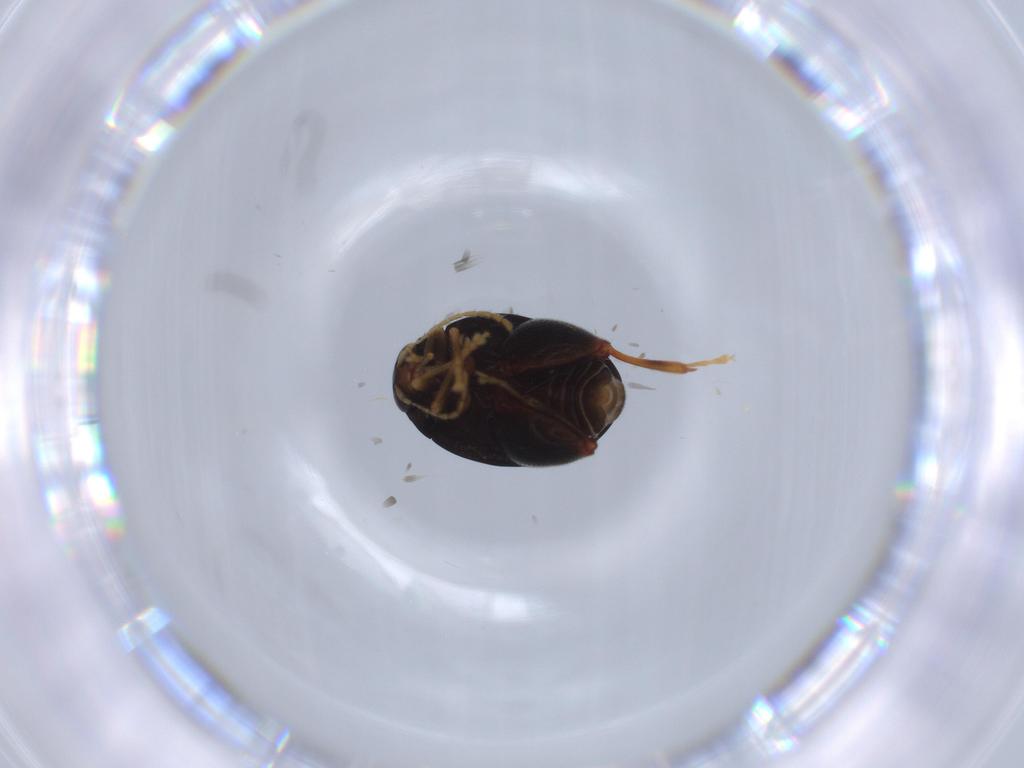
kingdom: Animalia
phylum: Arthropoda
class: Insecta
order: Coleoptera
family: Chrysomelidae
